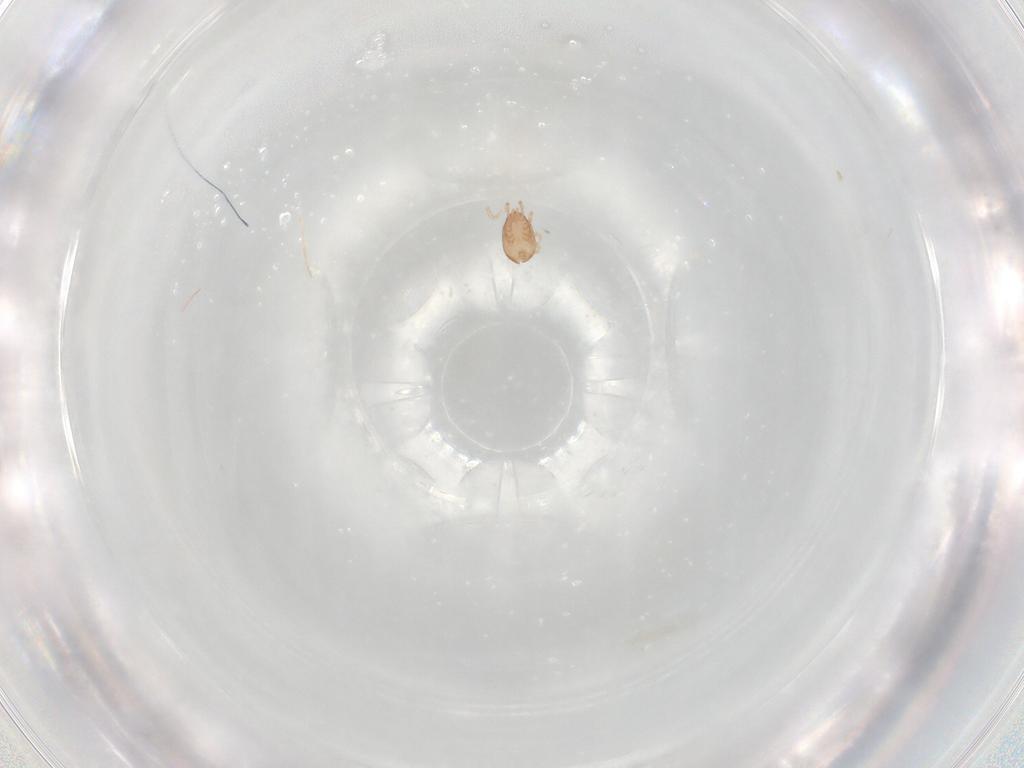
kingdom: Animalia
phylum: Arthropoda
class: Arachnida
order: Mesostigmata
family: Ascidae
